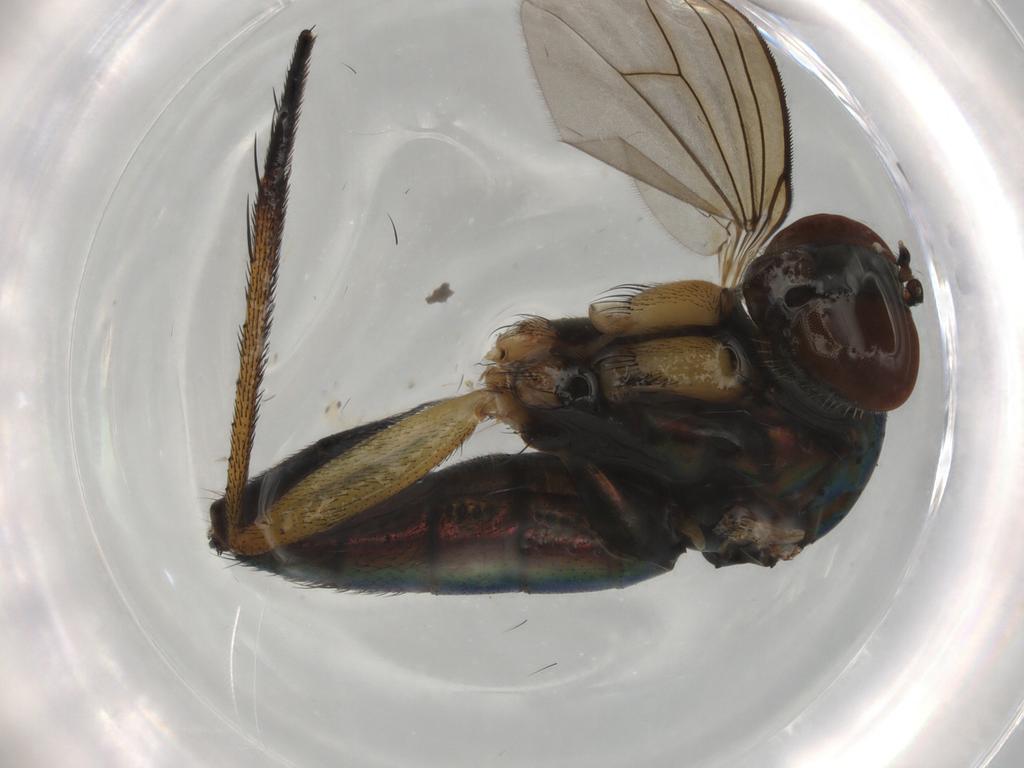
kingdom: Animalia
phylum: Arthropoda
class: Insecta
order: Diptera
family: Dolichopodidae
